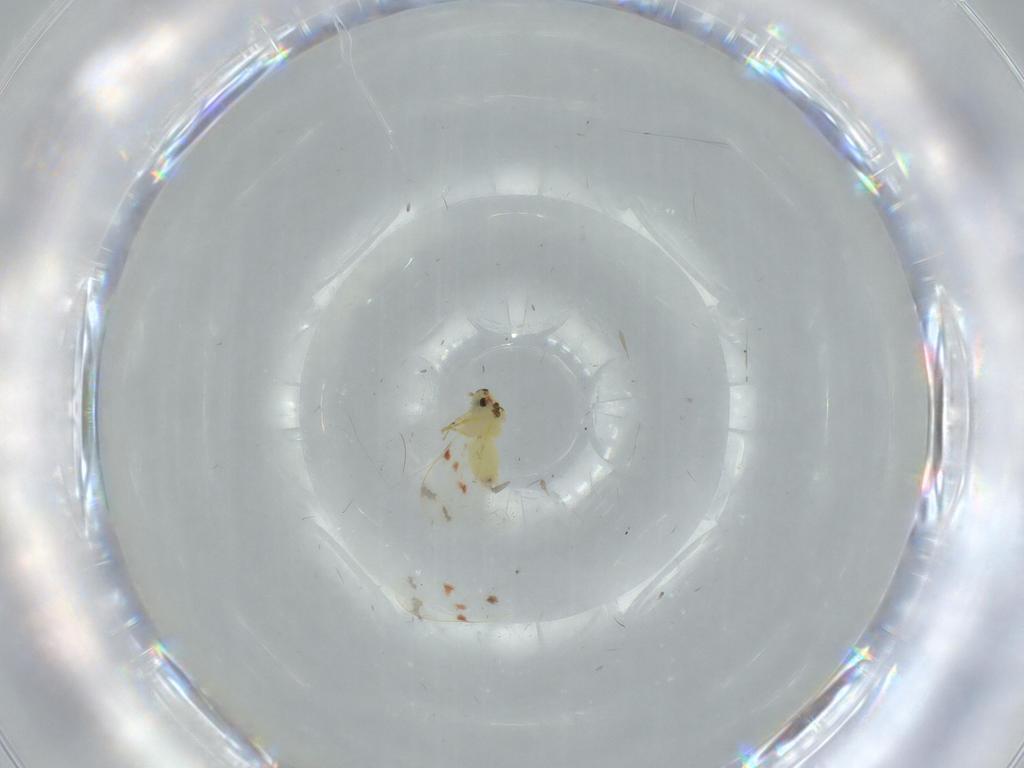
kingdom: Animalia
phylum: Arthropoda
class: Insecta
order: Hemiptera
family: Aleyrodidae
